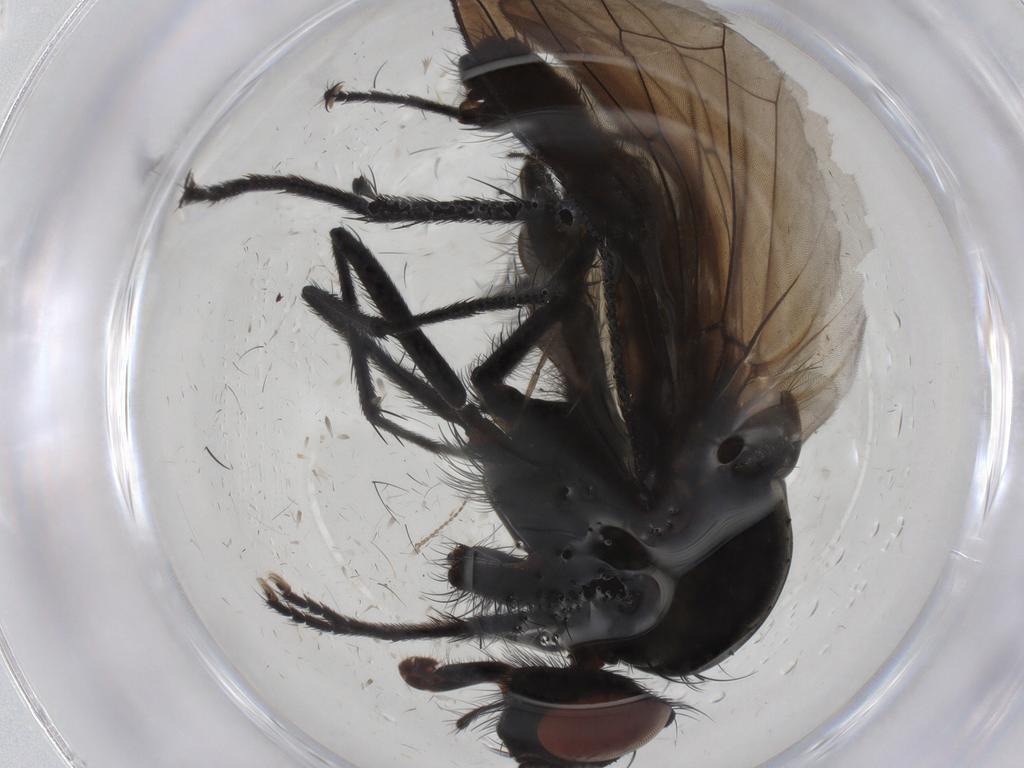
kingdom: Animalia
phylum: Arthropoda
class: Insecta
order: Diptera
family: Anthomyiidae
